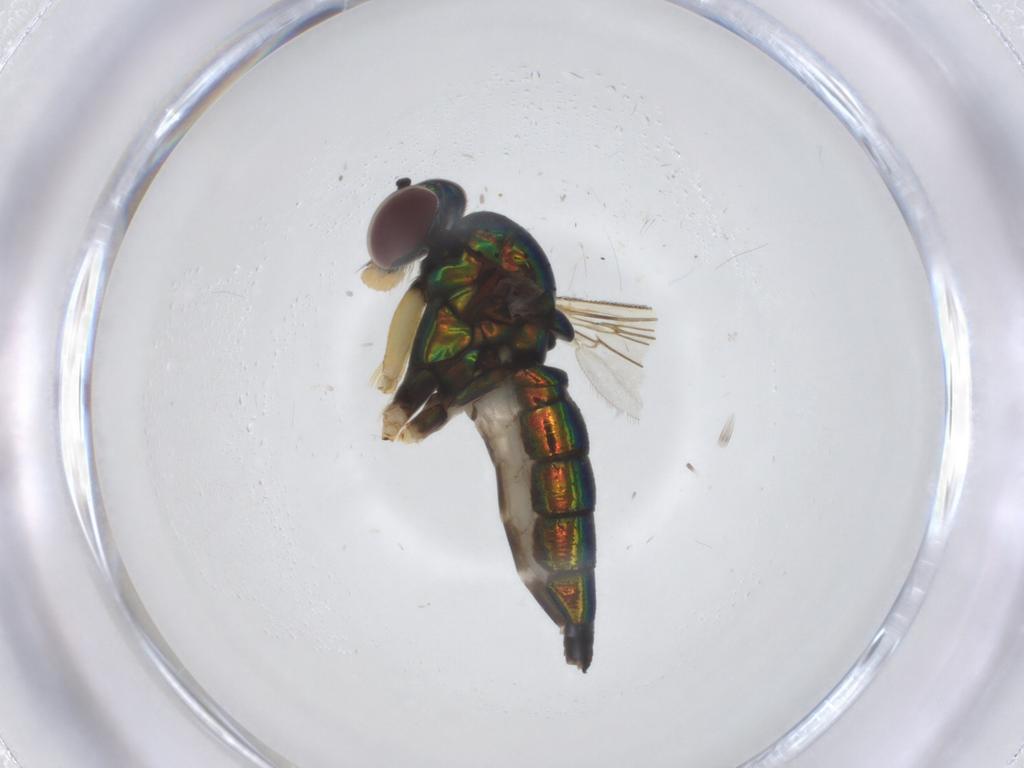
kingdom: Animalia
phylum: Arthropoda
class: Insecta
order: Diptera
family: Dolichopodidae
